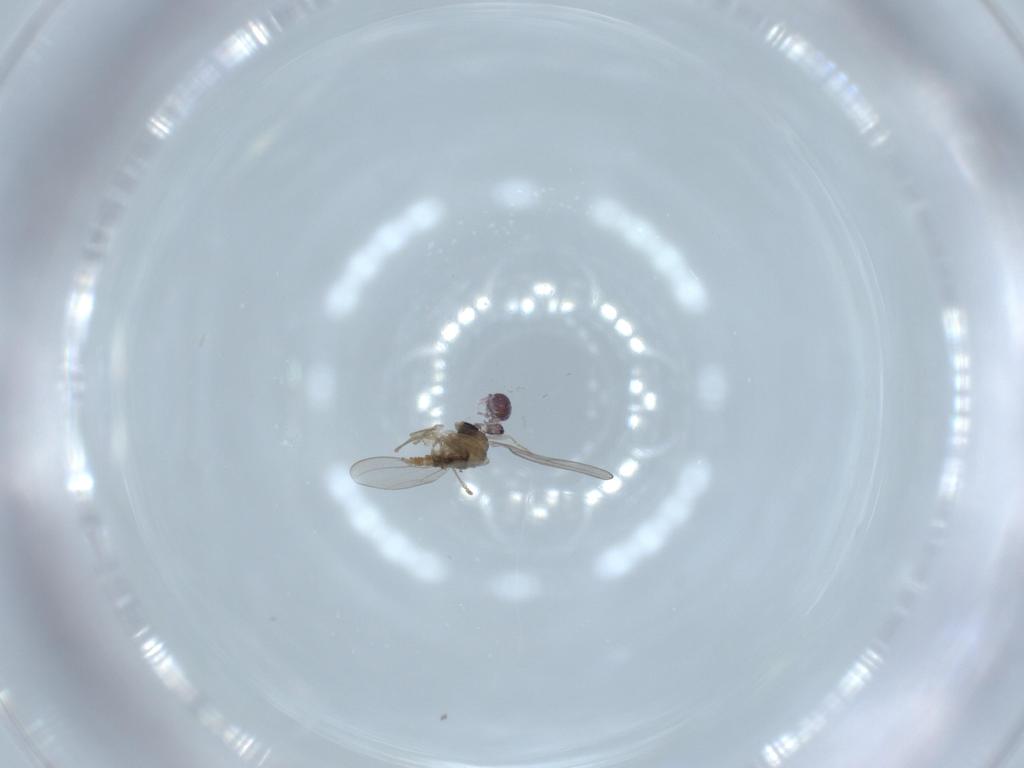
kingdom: Animalia
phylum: Arthropoda
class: Insecta
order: Diptera
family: Cecidomyiidae
